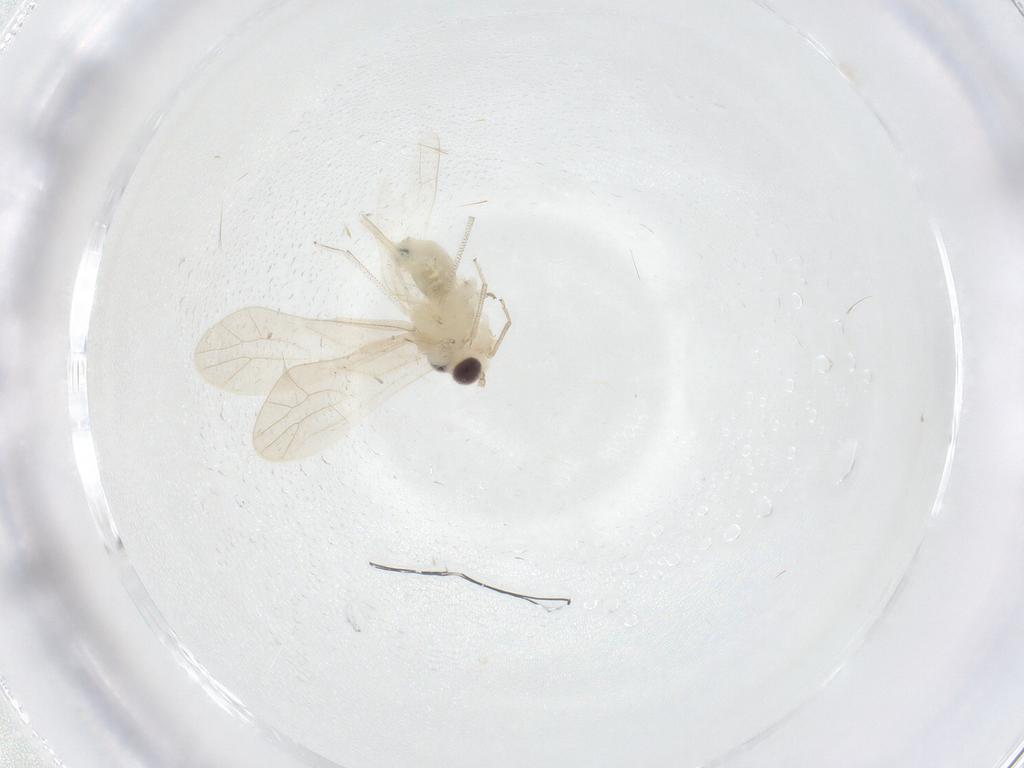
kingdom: Animalia
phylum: Arthropoda
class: Insecta
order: Psocodea
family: Caeciliusidae
